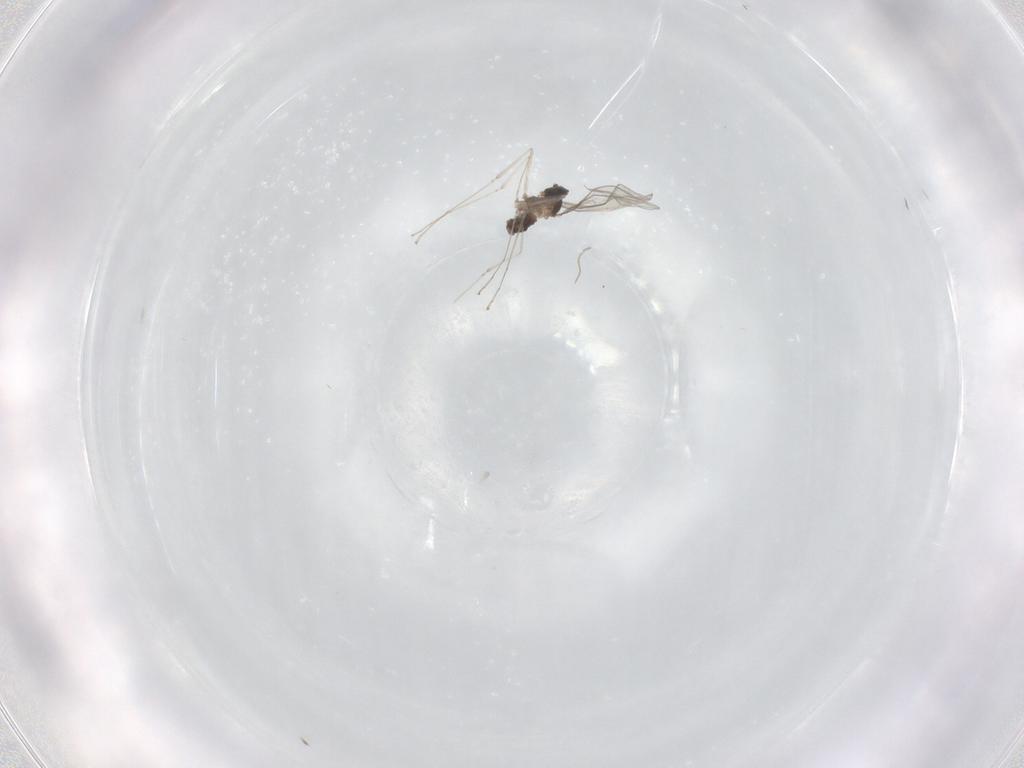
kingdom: Animalia
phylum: Arthropoda
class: Insecta
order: Diptera
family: Cecidomyiidae
